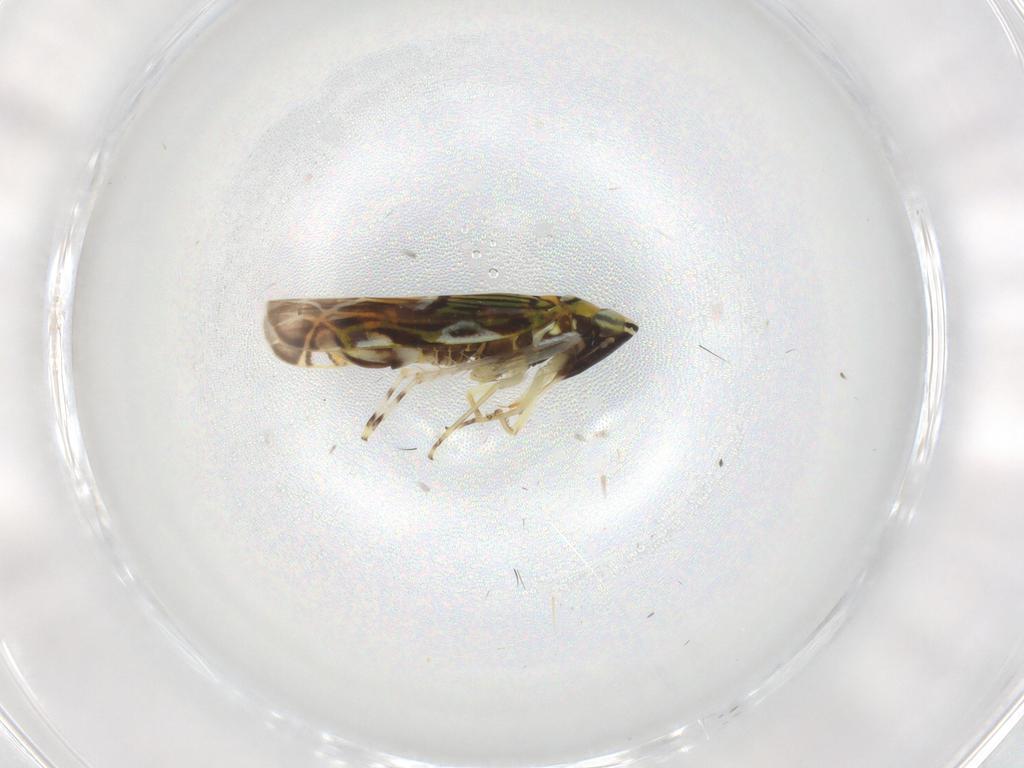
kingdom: Animalia
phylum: Arthropoda
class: Insecta
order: Hemiptera
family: Cicadellidae
